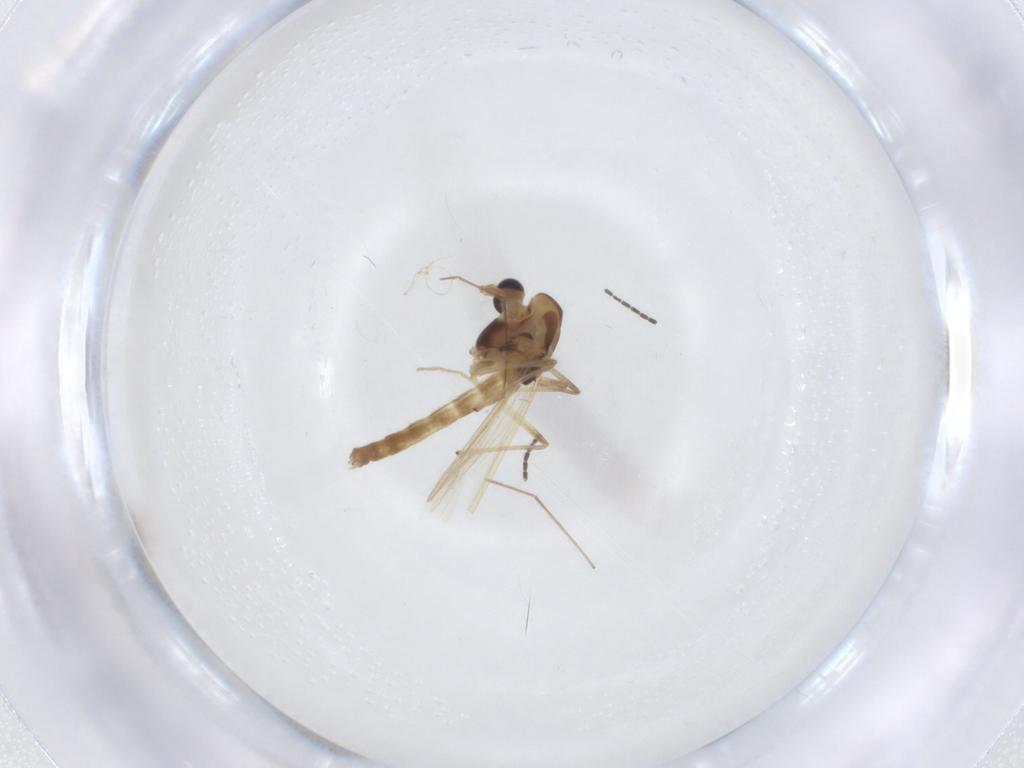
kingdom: Animalia
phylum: Arthropoda
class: Insecta
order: Diptera
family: Chironomidae
